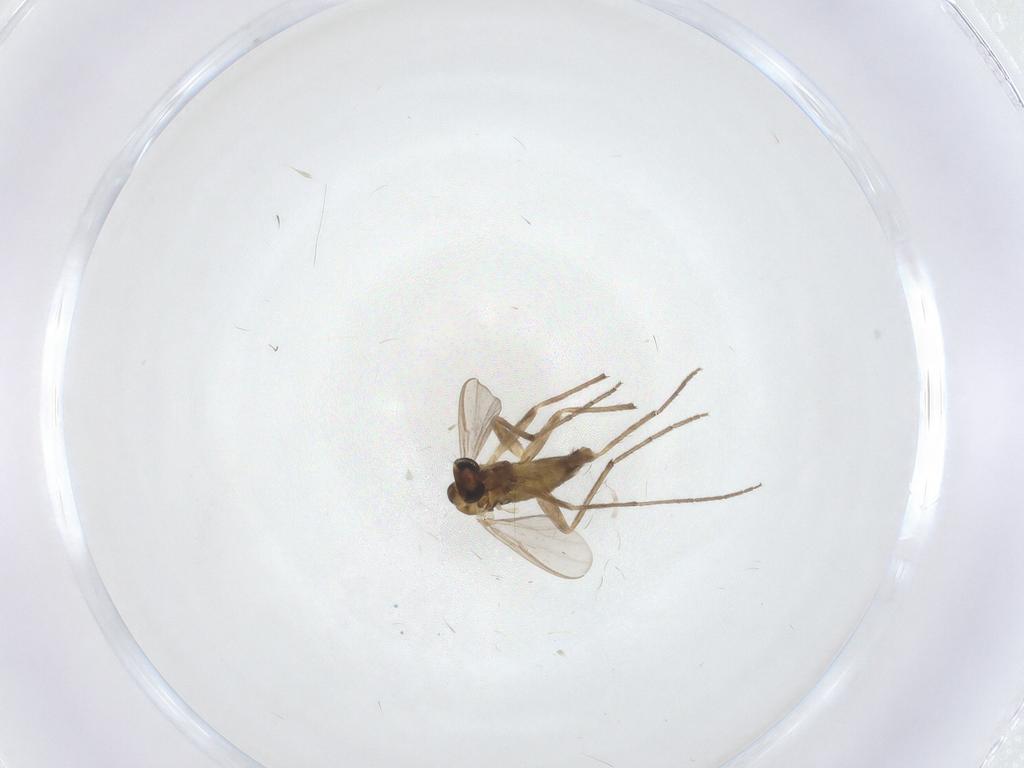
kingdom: Animalia
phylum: Arthropoda
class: Insecta
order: Diptera
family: Chironomidae
